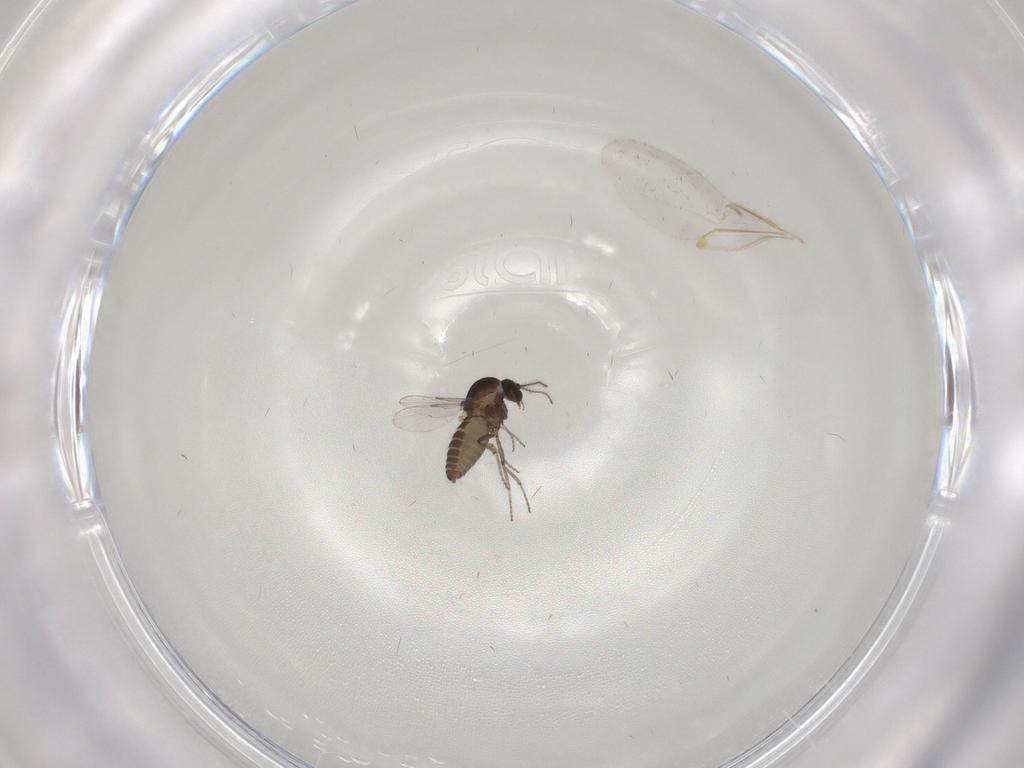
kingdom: Animalia
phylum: Arthropoda
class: Insecta
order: Diptera
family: Ceratopogonidae
